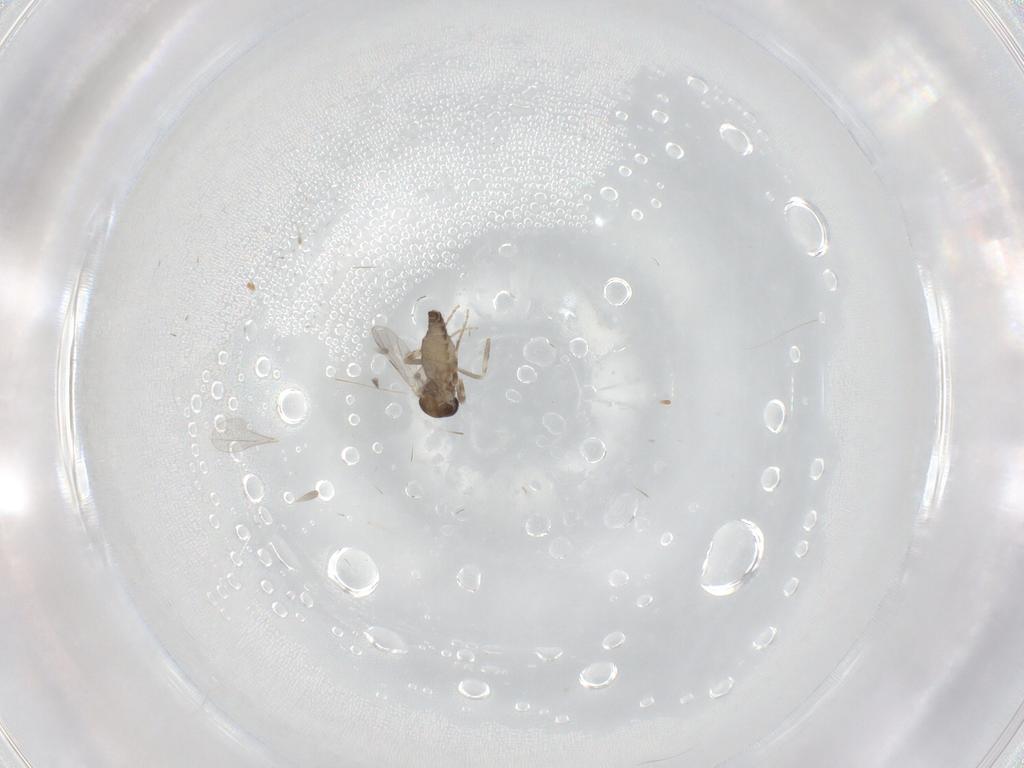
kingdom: Animalia
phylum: Arthropoda
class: Insecta
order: Diptera
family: Ceratopogonidae
